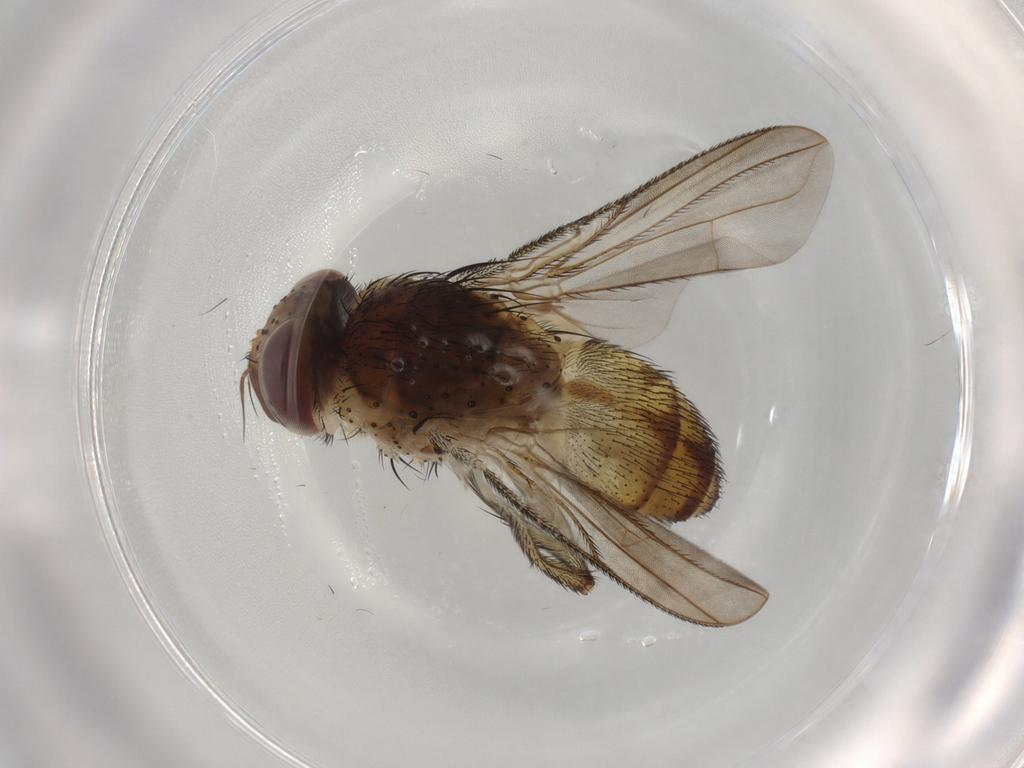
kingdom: Animalia
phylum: Arthropoda
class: Insecta
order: Diptera
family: Tachinidae
